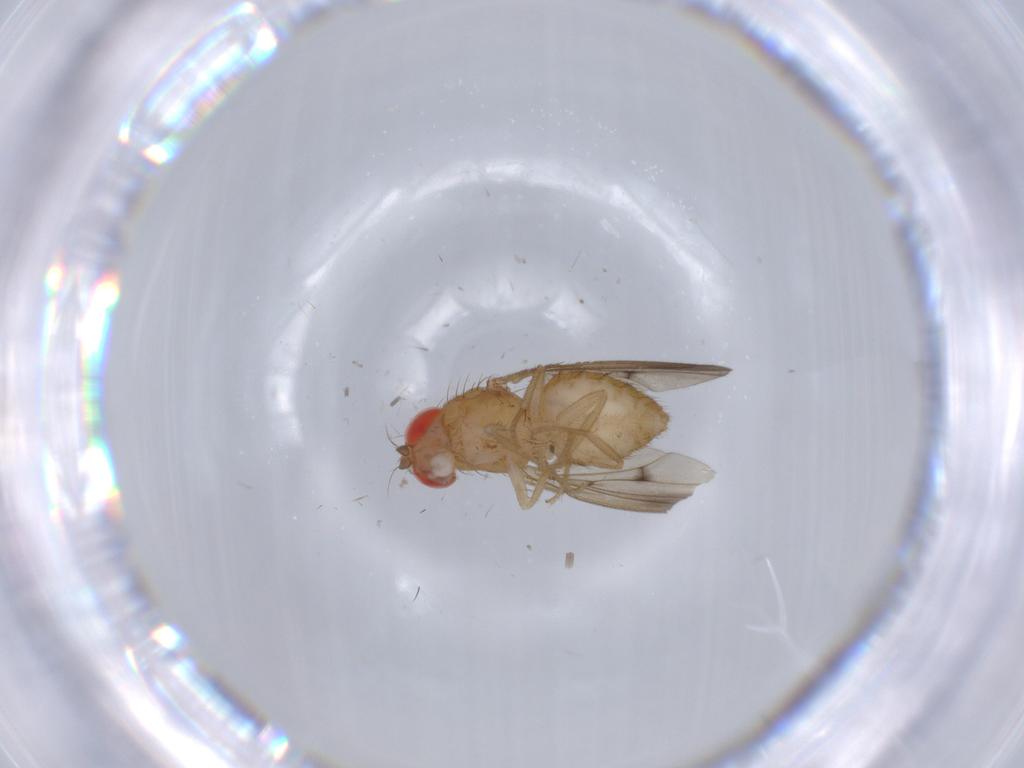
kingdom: Animalia
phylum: Arthropoda
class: Insecta
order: Diptera
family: Drosophilidae
